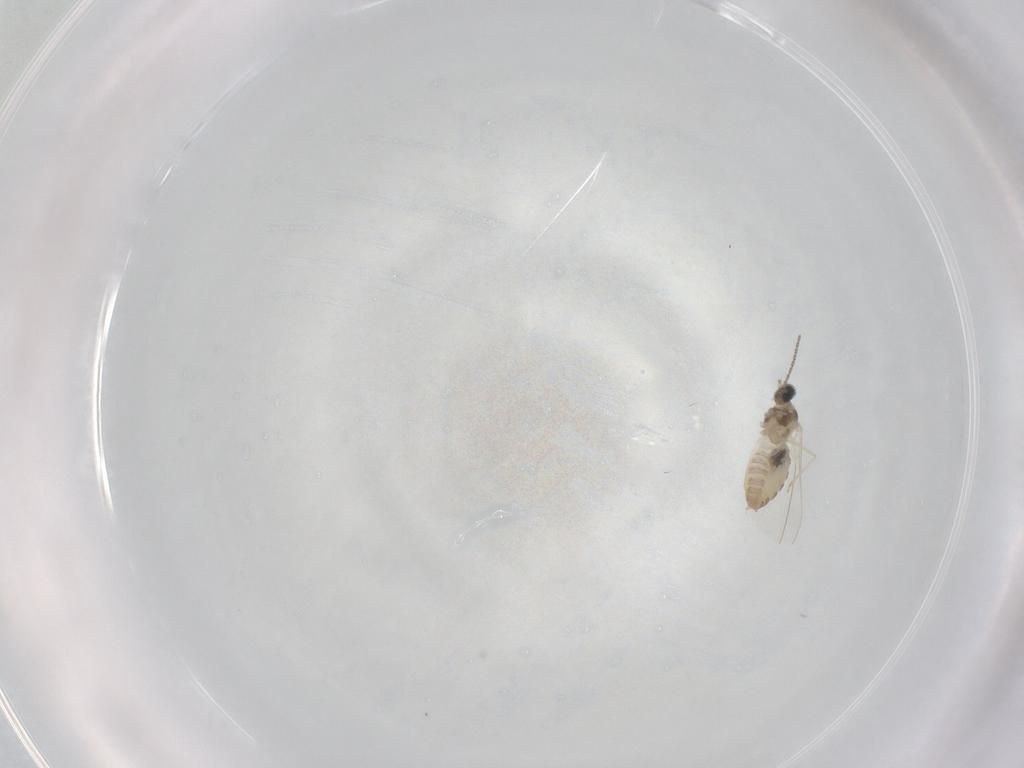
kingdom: Animalia
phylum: Arthropoda
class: Insecta
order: Diptera
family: Cecidomyiidae
